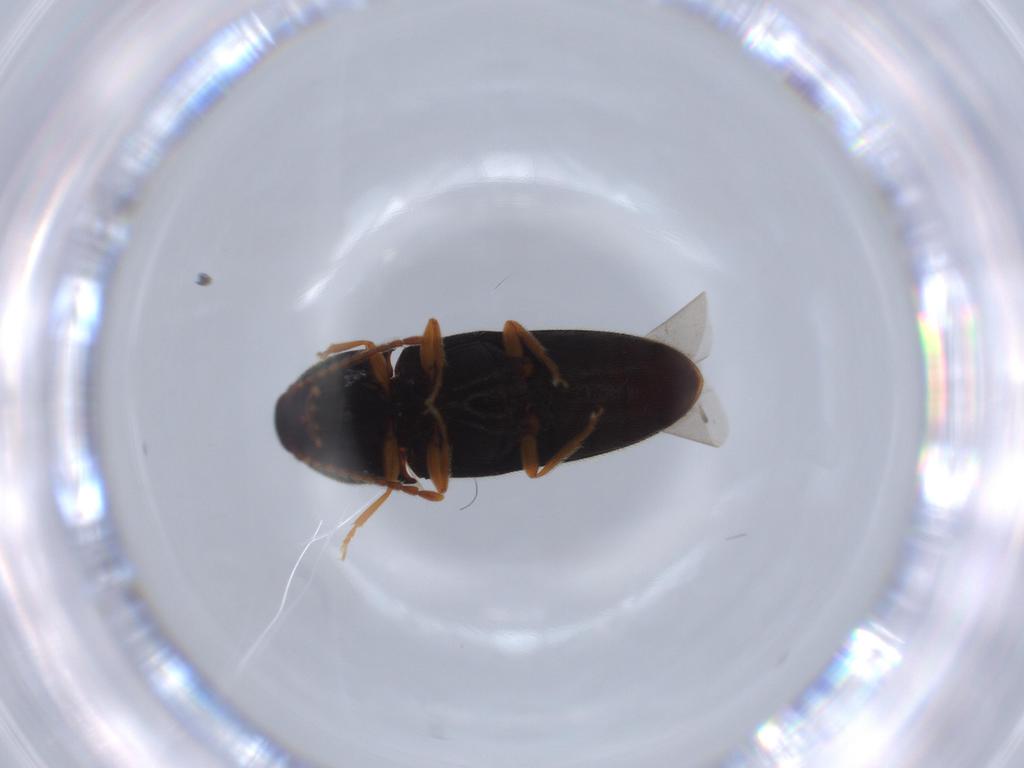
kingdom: Animalia
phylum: Arthropoda
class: Insecta
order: Coleoptera
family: Elateridae
